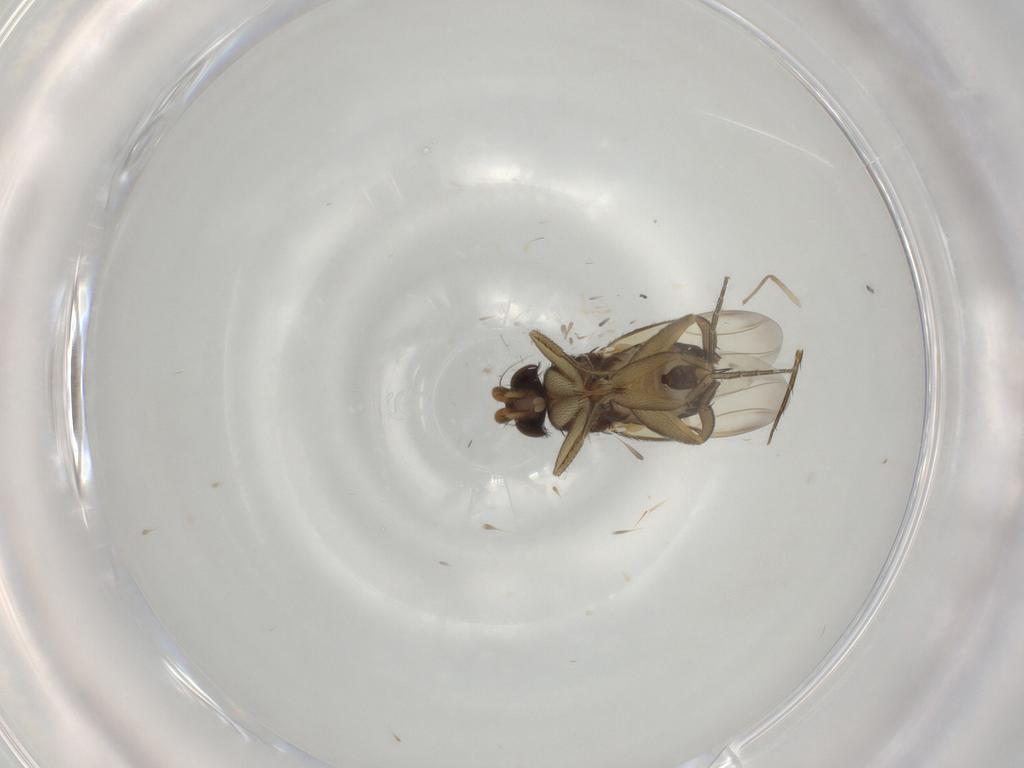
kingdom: Animalia
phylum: Arthropoda
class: Insecta
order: Diptera
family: Phoridae
